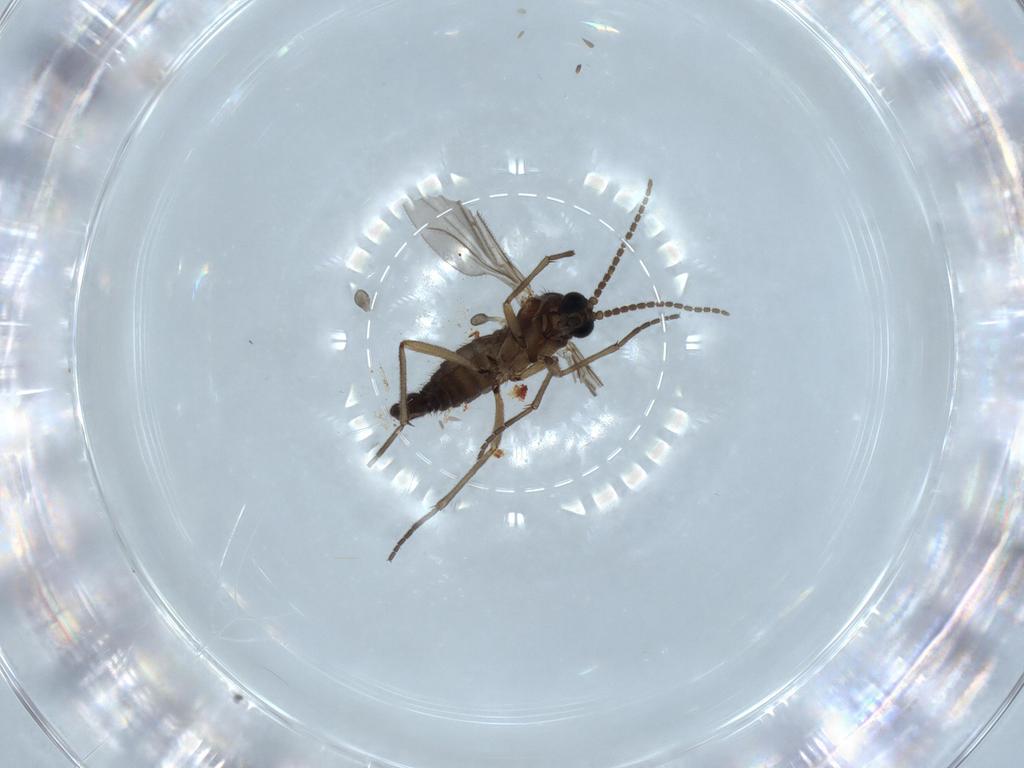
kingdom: Animalia
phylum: Arthropoda
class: Insecta
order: Diptera
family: Sciaridae
